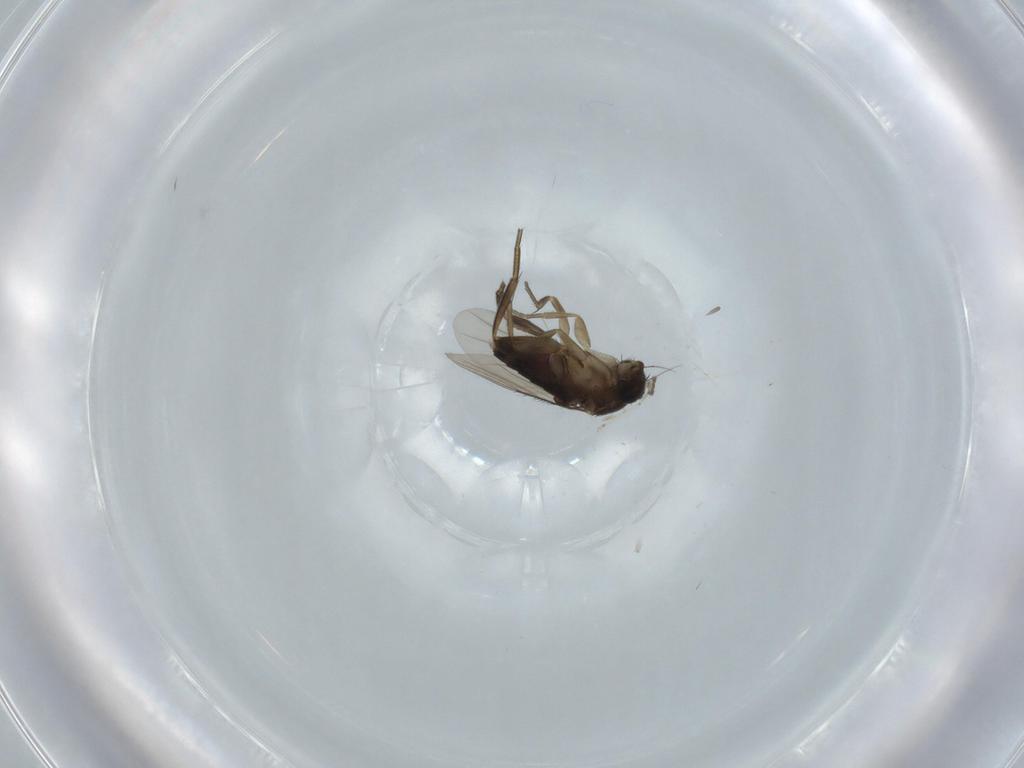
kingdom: Animalia
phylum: Arthropoda
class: Insecta
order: Diptera
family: Phoridae
